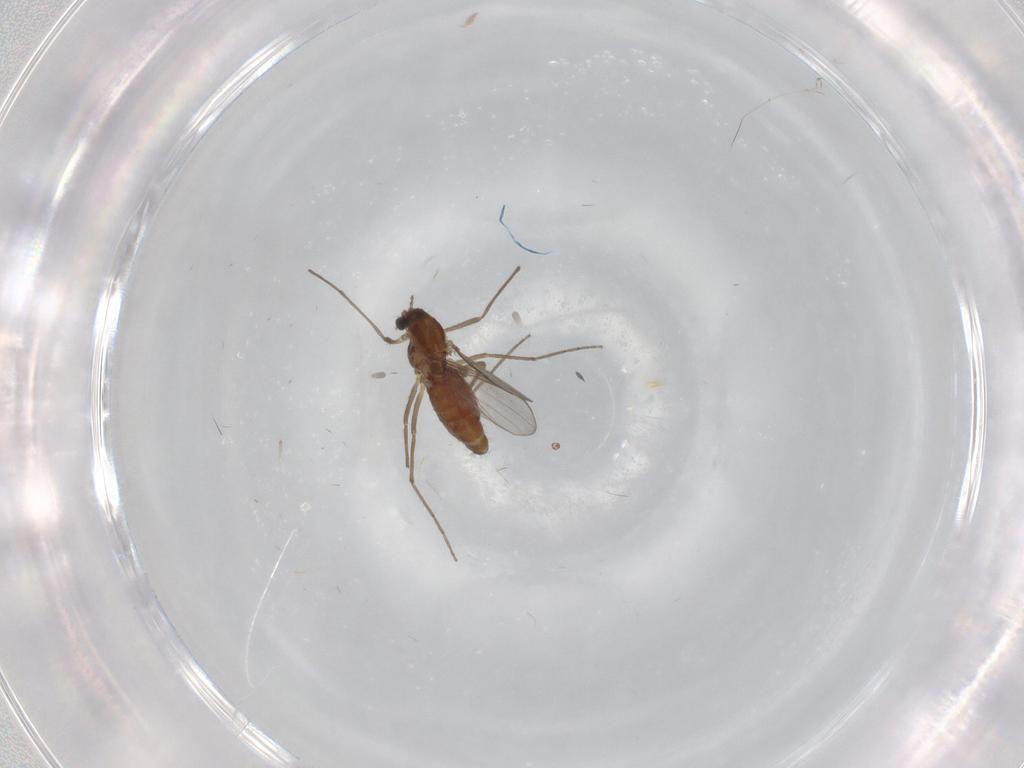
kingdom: Animalia
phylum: Arthropoda
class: Insecta
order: Diptera
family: Chironomidae
